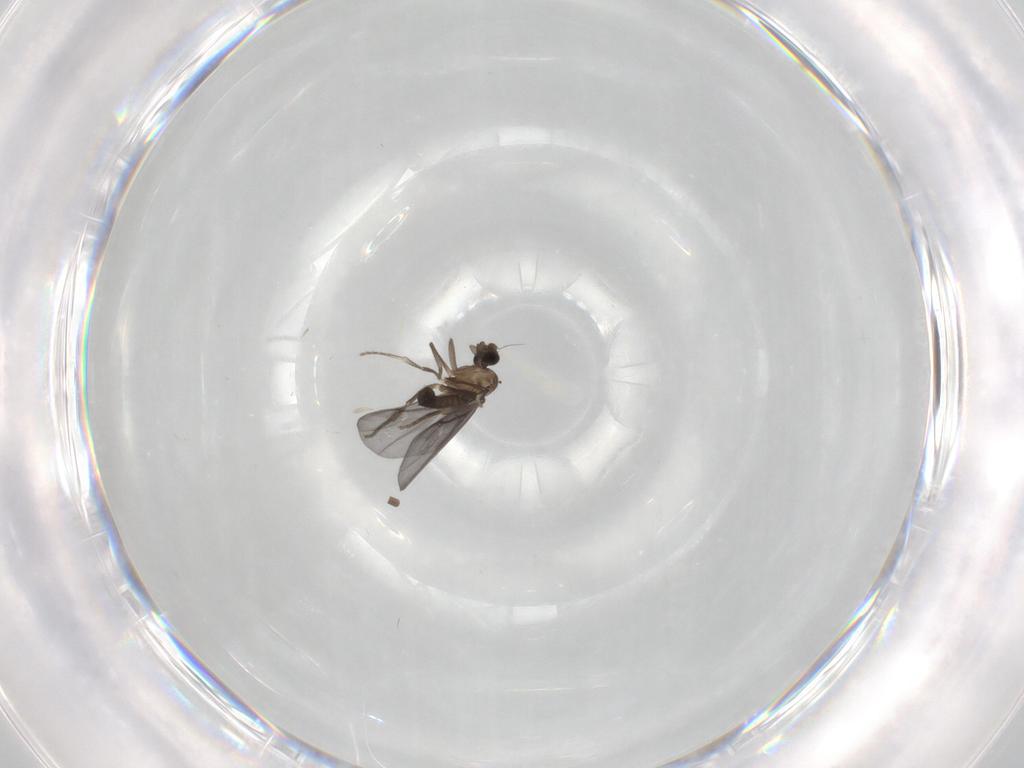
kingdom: Animalia
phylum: Arthropoda
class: Insecta
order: Diptera
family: Phoridae
